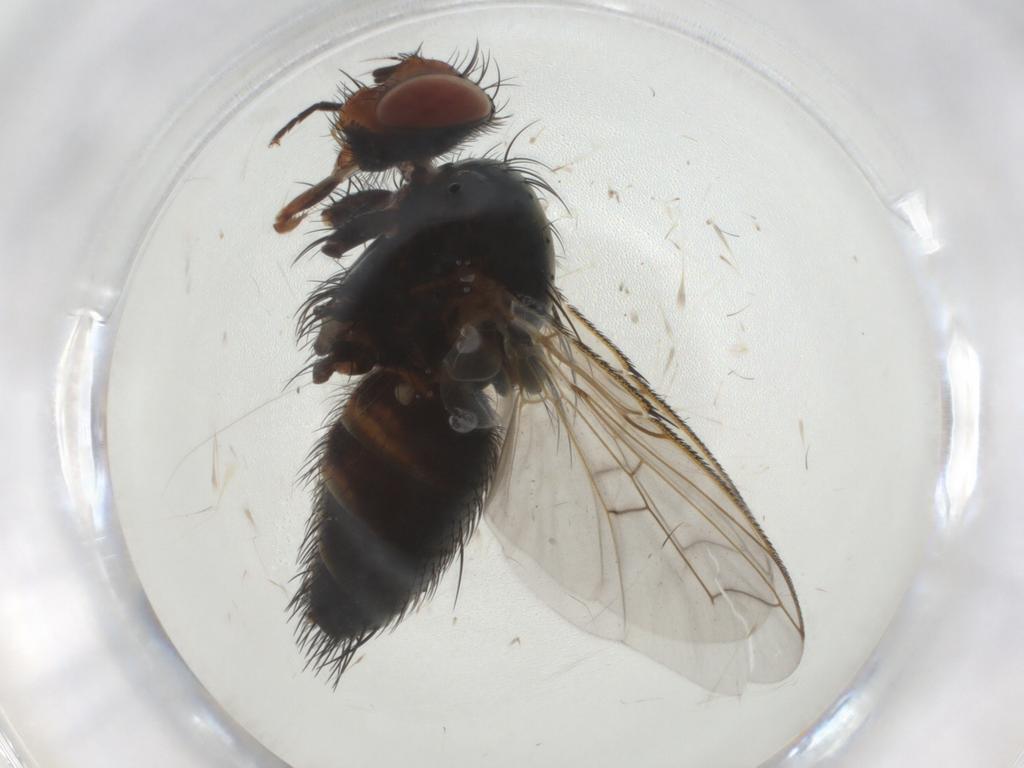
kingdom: Animalia
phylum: Arthropoda
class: Insecta
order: Diptera
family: Tachinidae
